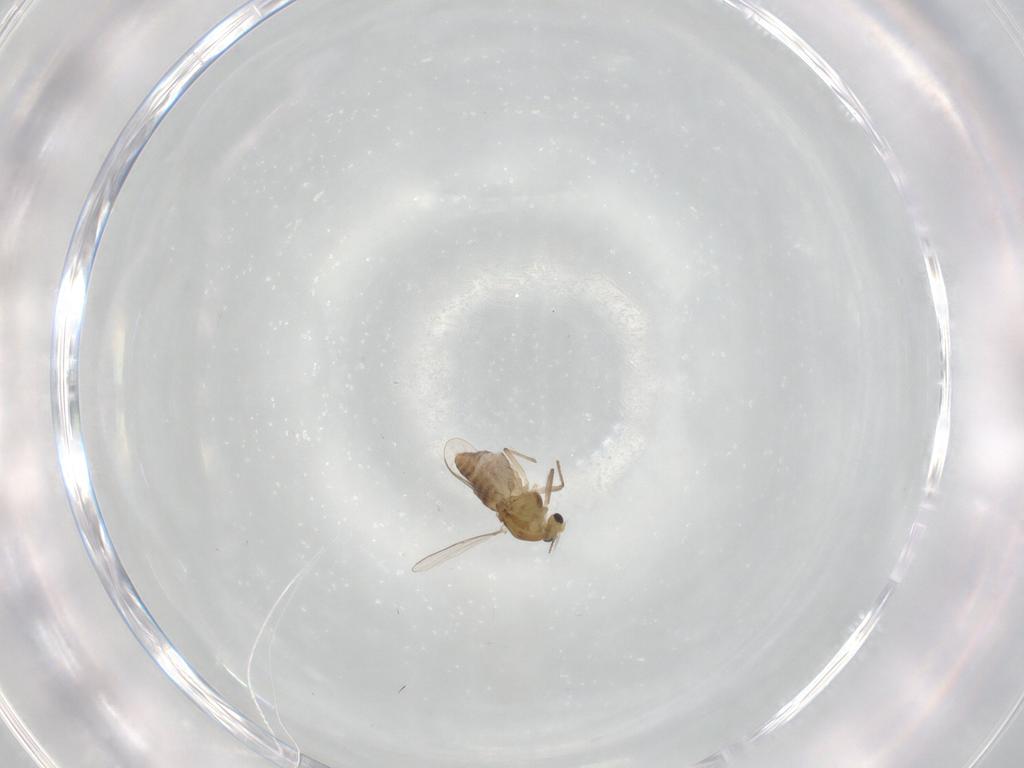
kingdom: Animalia
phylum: Arthropoda
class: Insecta
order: Diptera
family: Chironomidae
